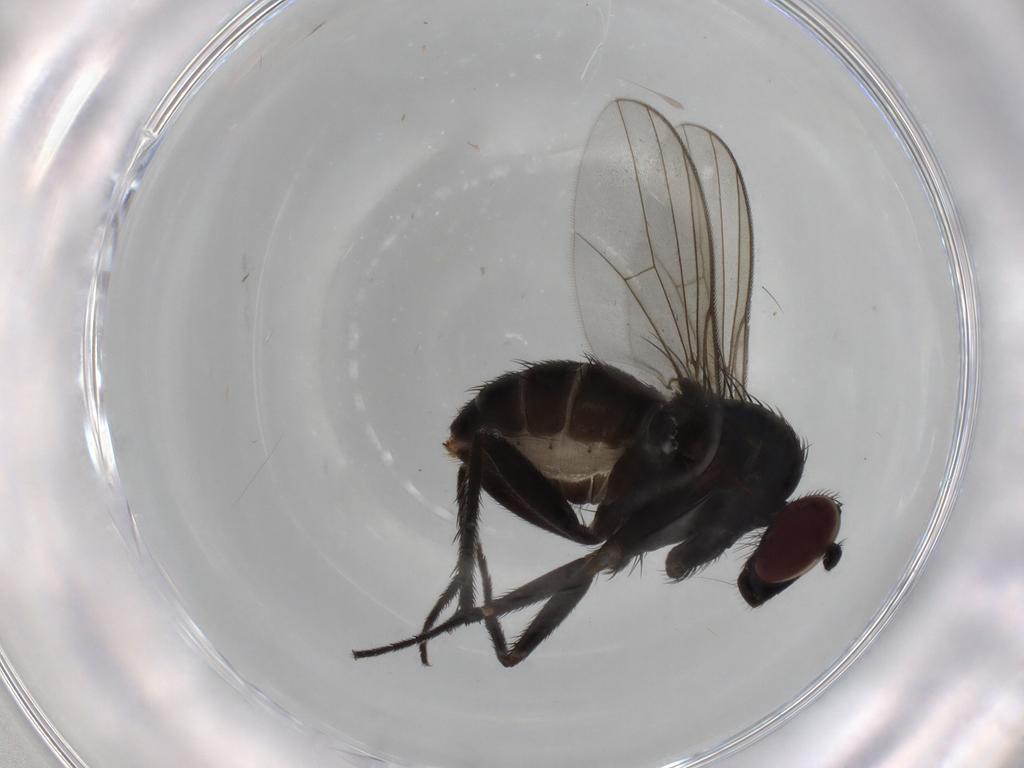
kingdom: Animalia
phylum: Arthropoda
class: Insecta
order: Diptera
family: Dolichopodidae
